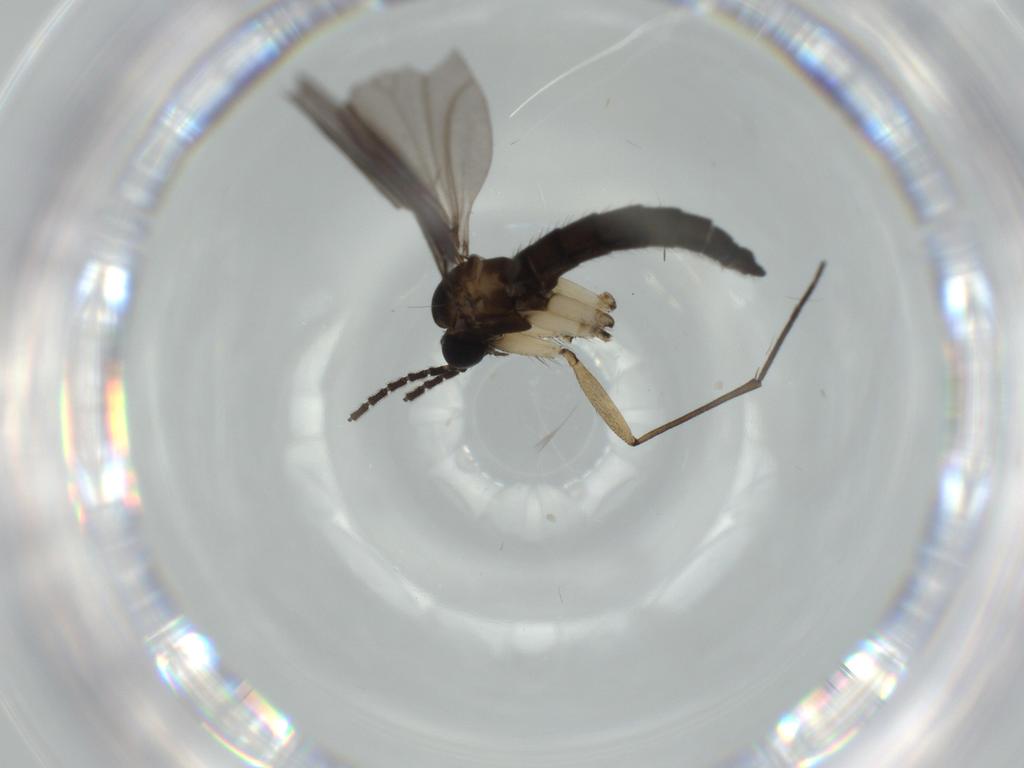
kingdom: Animalia
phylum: Arthropoda
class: Insecta
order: Diptera
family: Sciaridae
